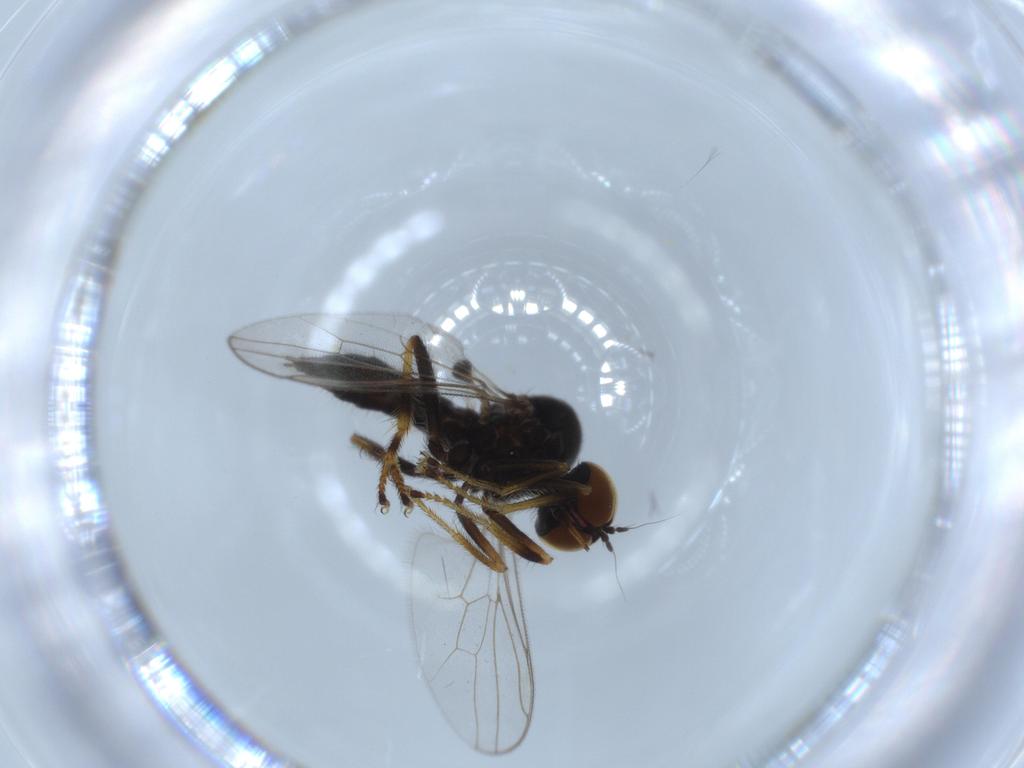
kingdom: Animalia
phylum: Arthropoda
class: Insecta
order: Diptera
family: Hybotidae
